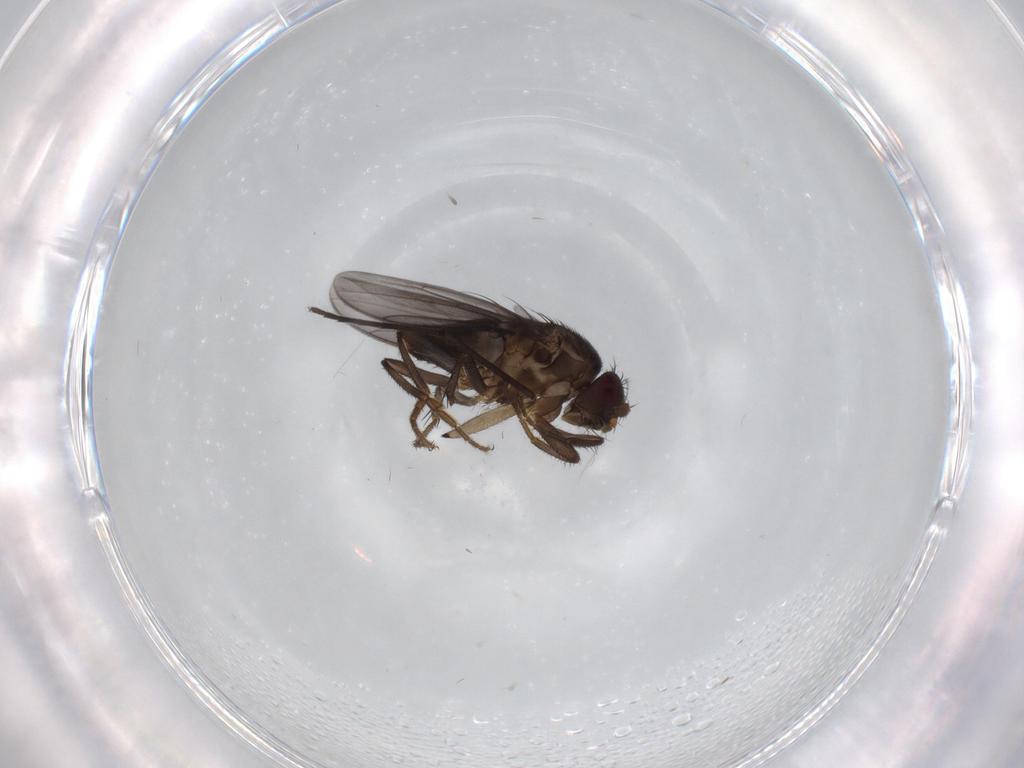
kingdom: Animalia
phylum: Arthropoda
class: Insecta
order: Diptera
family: Sciaridae
